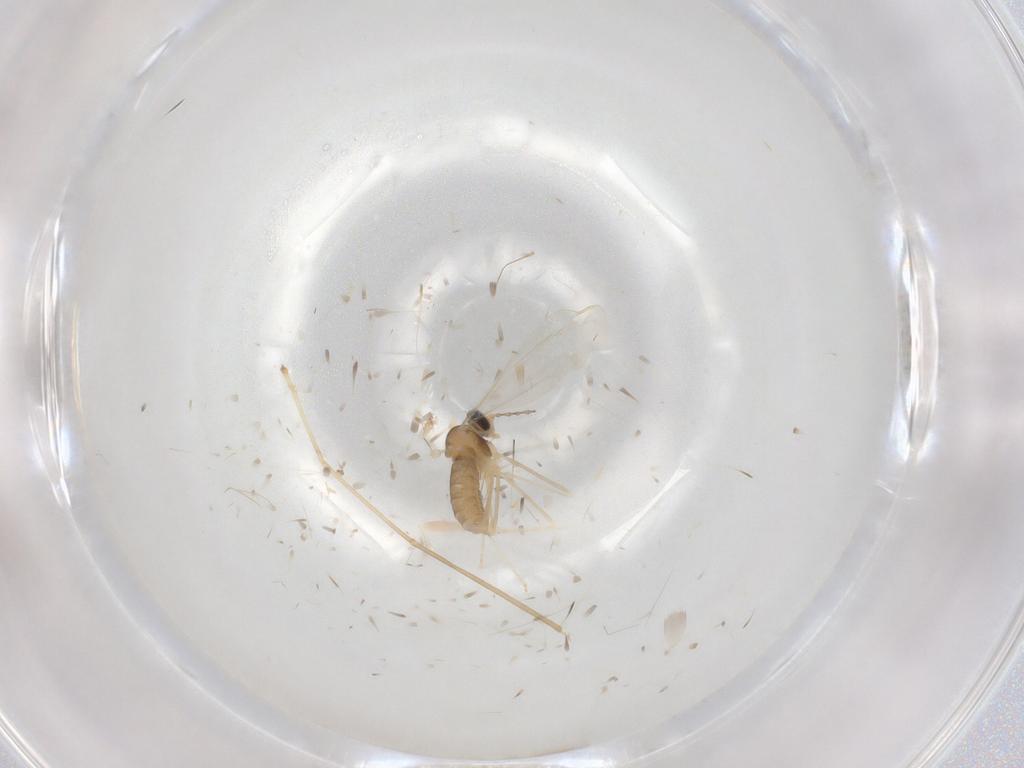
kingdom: Animalia
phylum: Arthropoda
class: Insecta
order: Diptera
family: Cecidomyiidae
